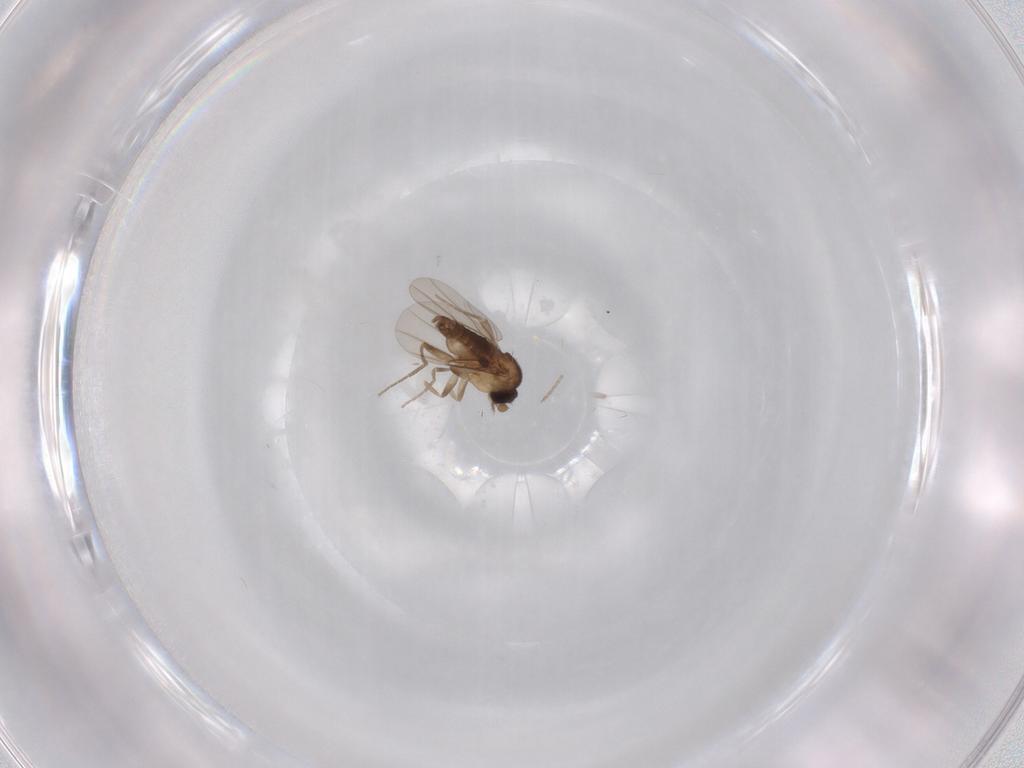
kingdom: Animalia
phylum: Arthropoda
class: Insecta
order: Diptera
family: Phoridae
